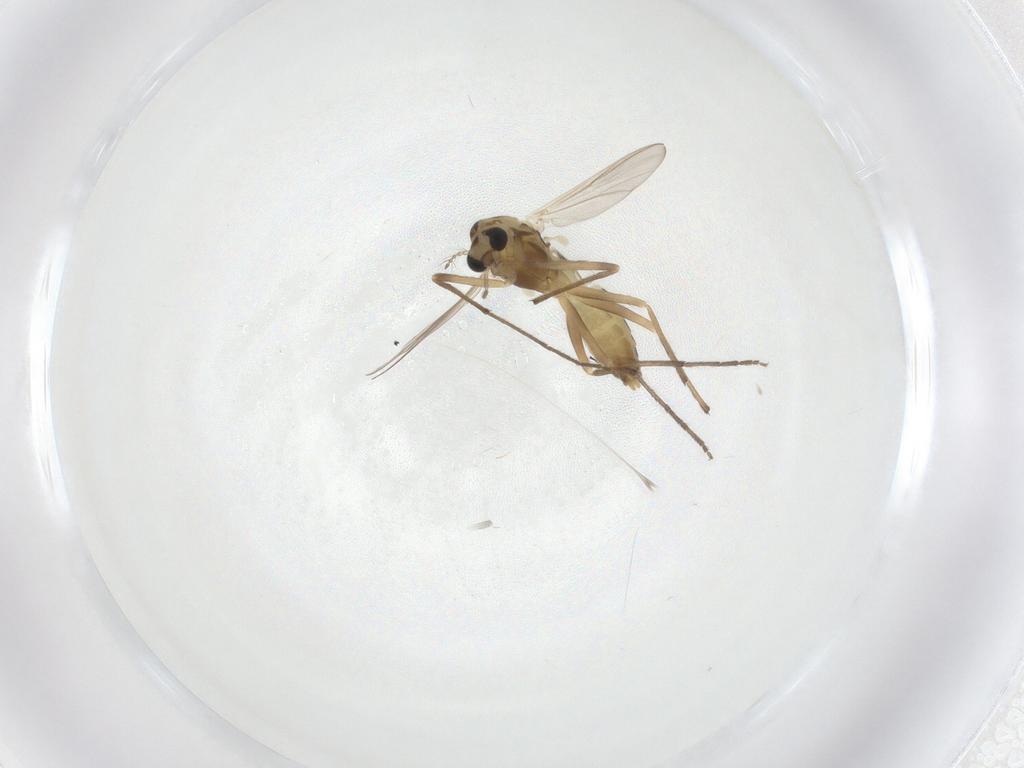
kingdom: Animalia
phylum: Arthropoda
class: Insecta
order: Diptera
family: Chironomidae
